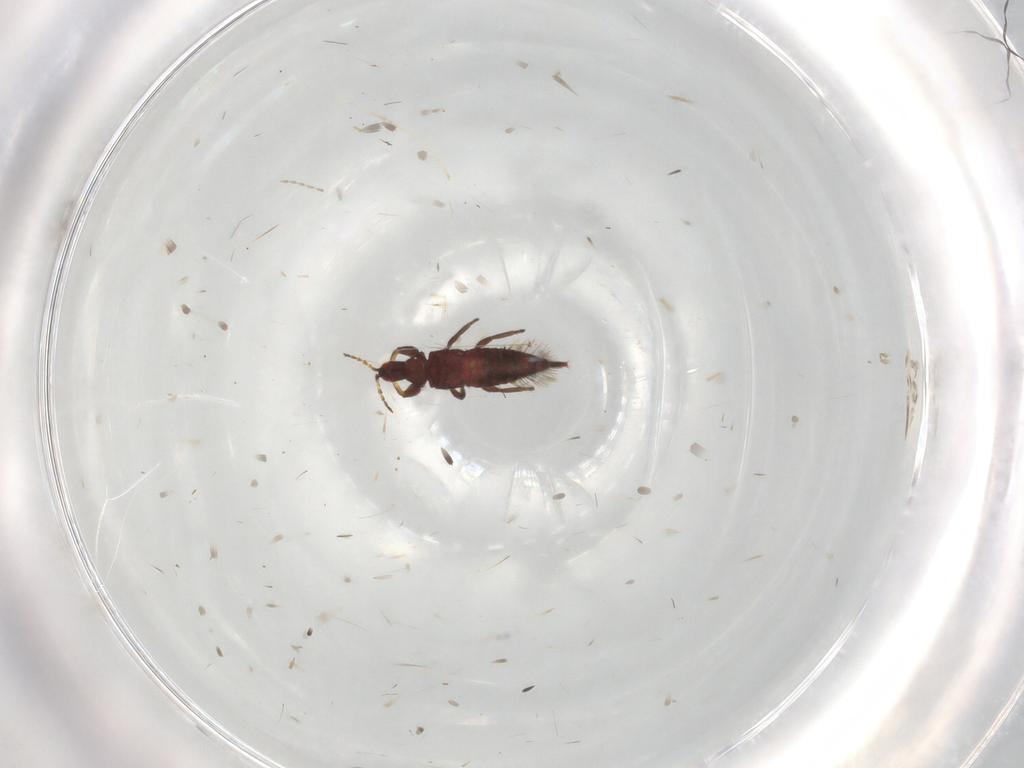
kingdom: Animalia
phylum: Arthropoda
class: Insecta
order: Thysanoptera
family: Phlaeothripidae
